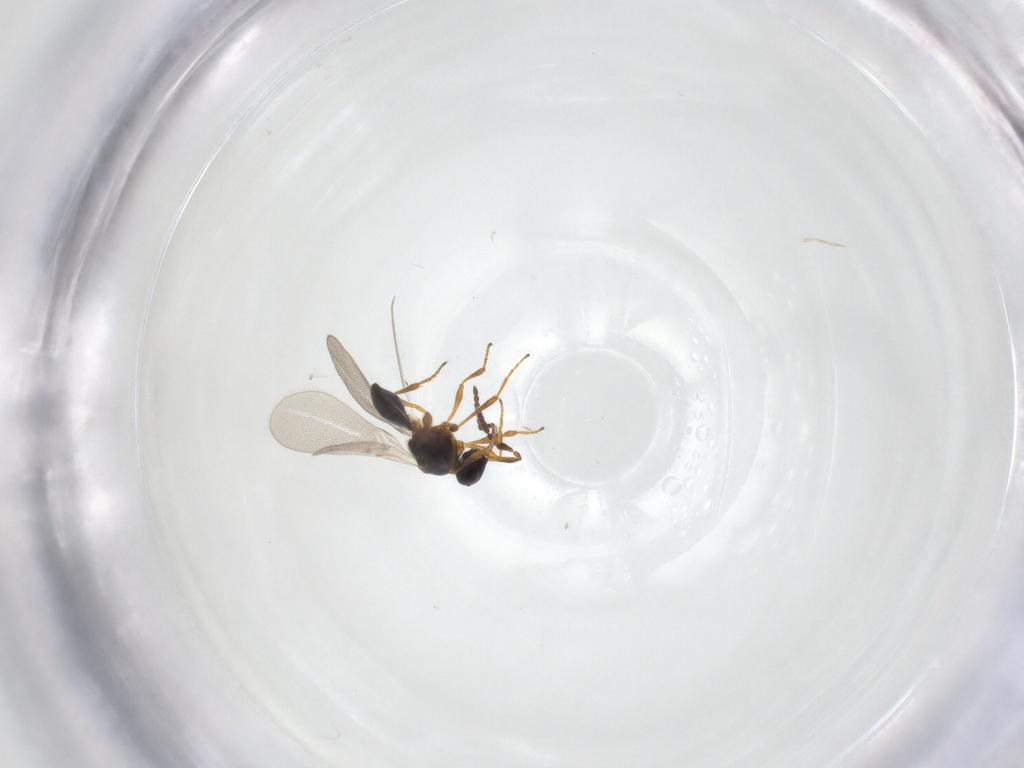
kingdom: Animalia
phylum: Arthropoda
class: Insecta
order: Hymenoptera
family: Platygastridae
